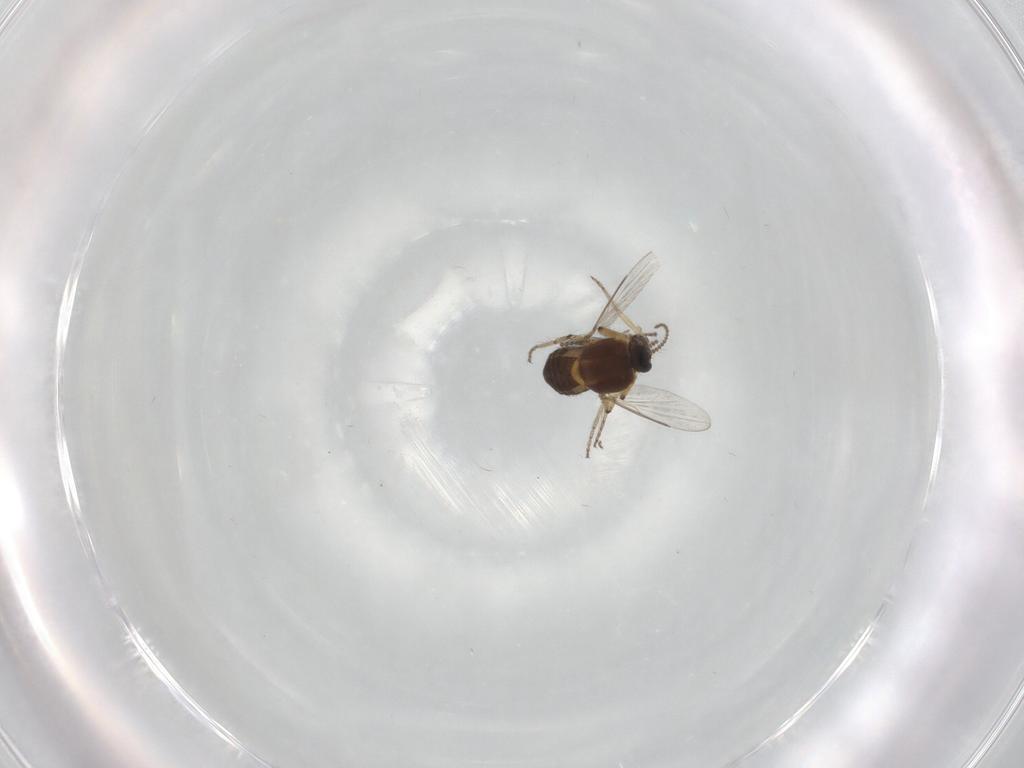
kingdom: Animalia
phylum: Arthropoda
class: Insecta
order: Diptera
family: Ceratopogonidae
